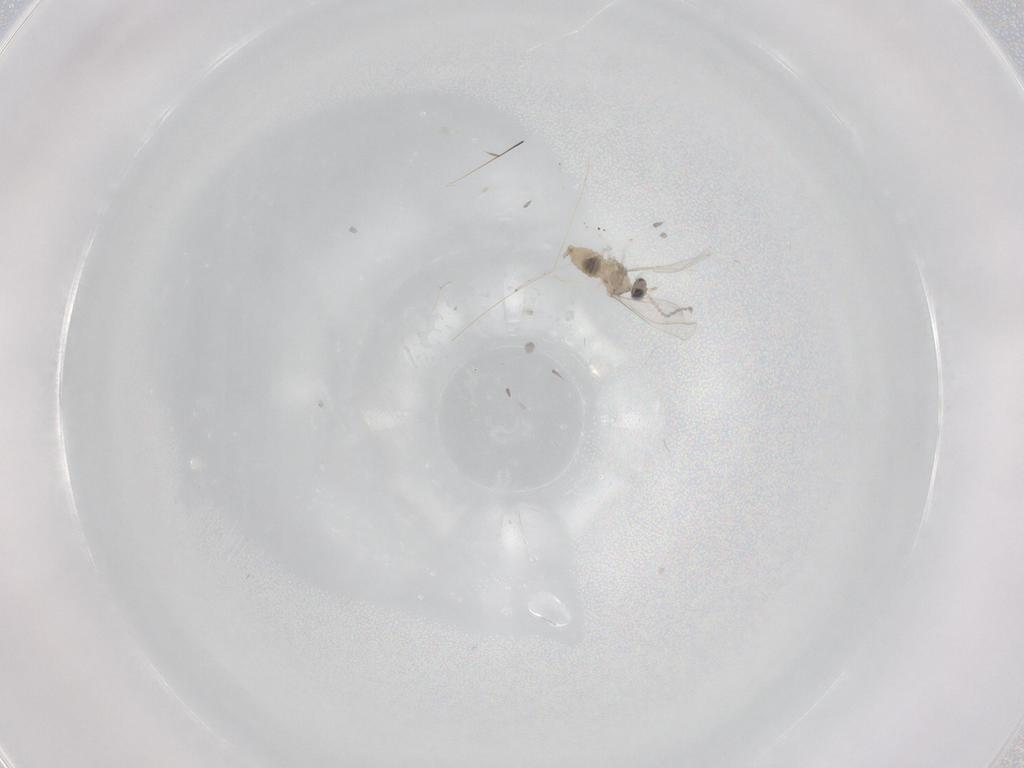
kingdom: Animalia
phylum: Arthropoda
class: Insecta
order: Diptera
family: Cecidomyiidae
